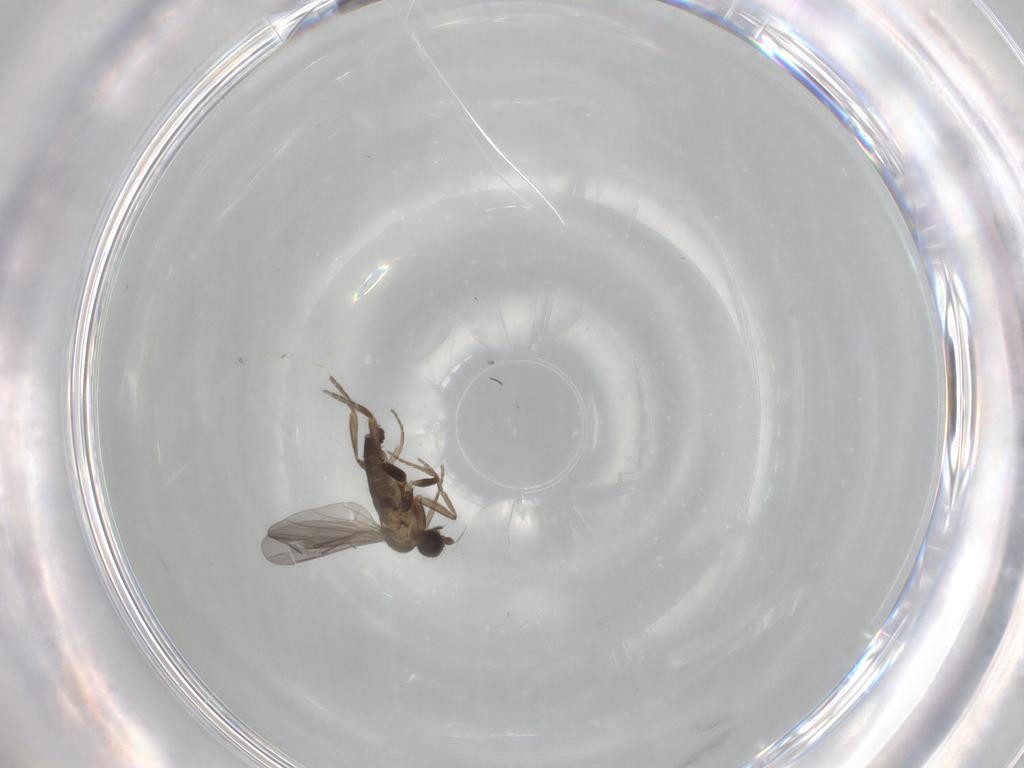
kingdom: Animalia
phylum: Arthropoda
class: Insecta
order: Diptera
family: Phoridae
